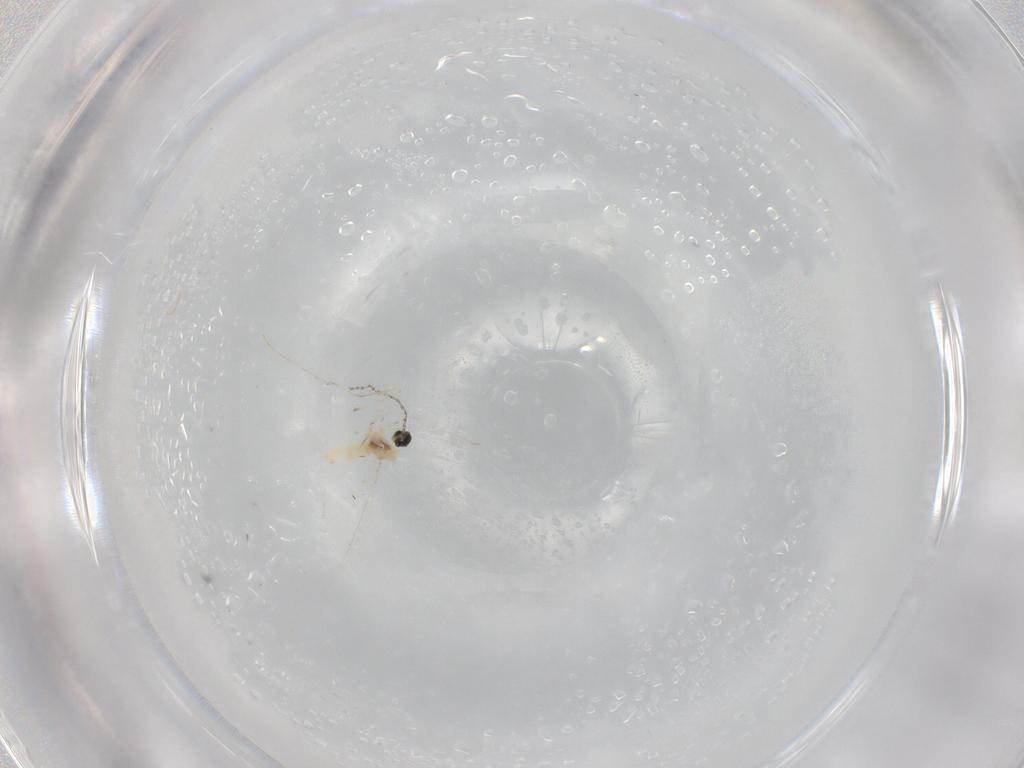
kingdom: Animalia
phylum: Arthropoda
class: Insecta
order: Diptera
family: Cecidomyiidae
